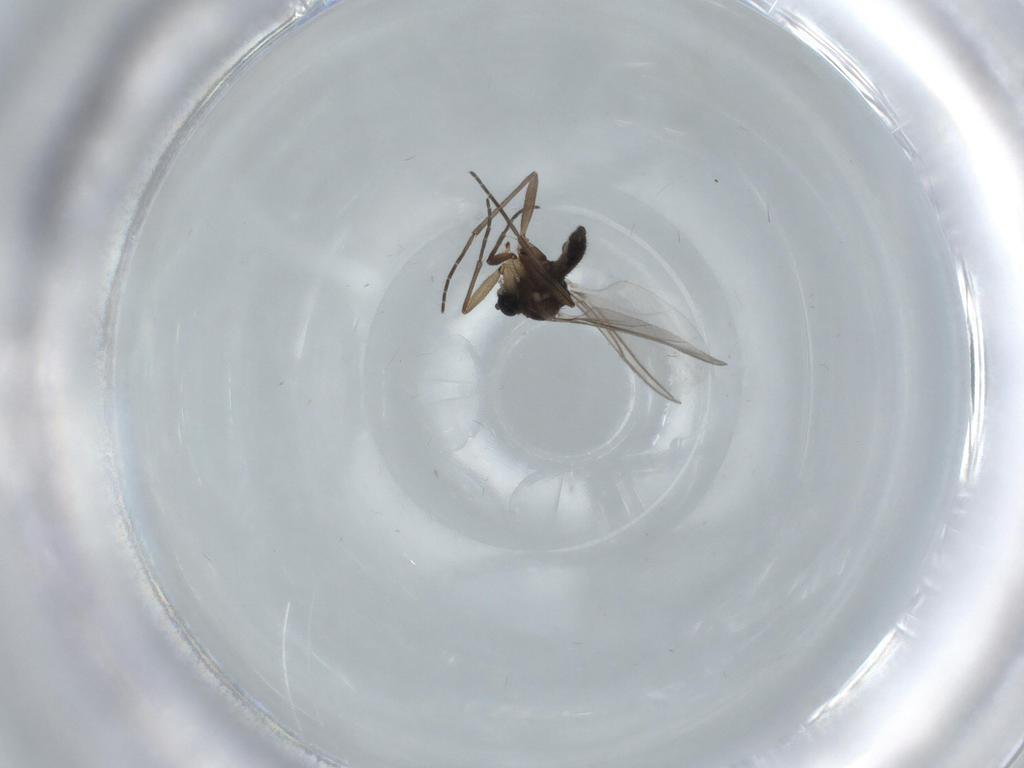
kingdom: Animalia
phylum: Arthropoda
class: Insecta
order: Diptera
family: Sciaridae
